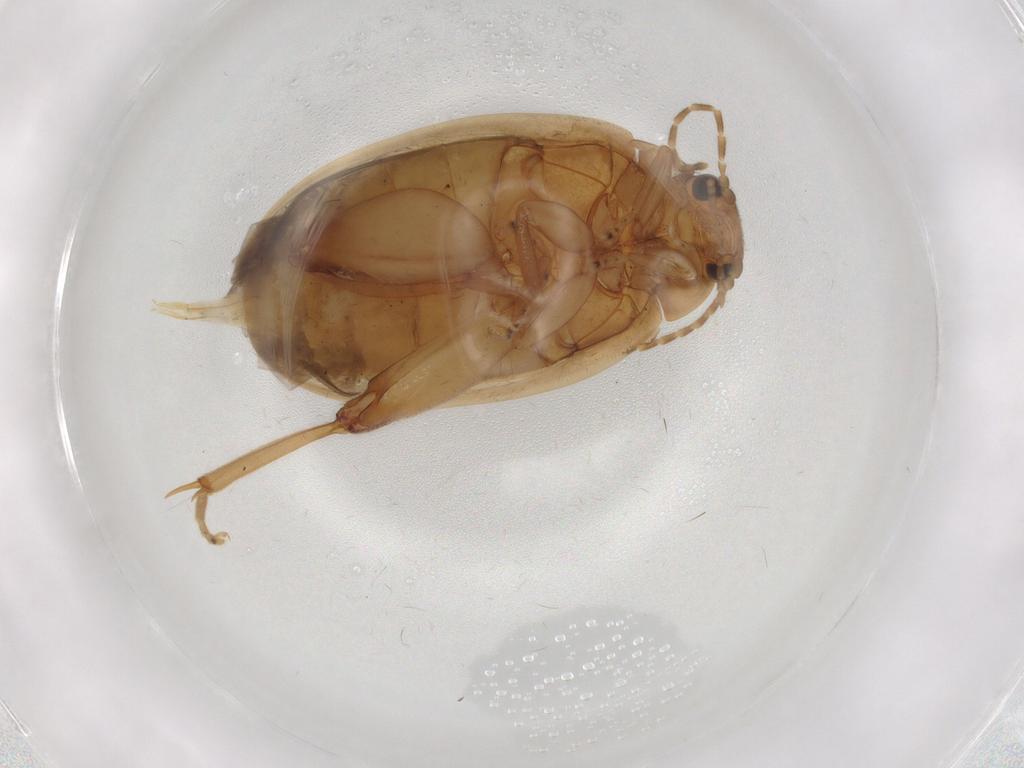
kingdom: Animalia
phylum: Arthropoda
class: Insecta
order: Coleoptera
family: Scirtidae
